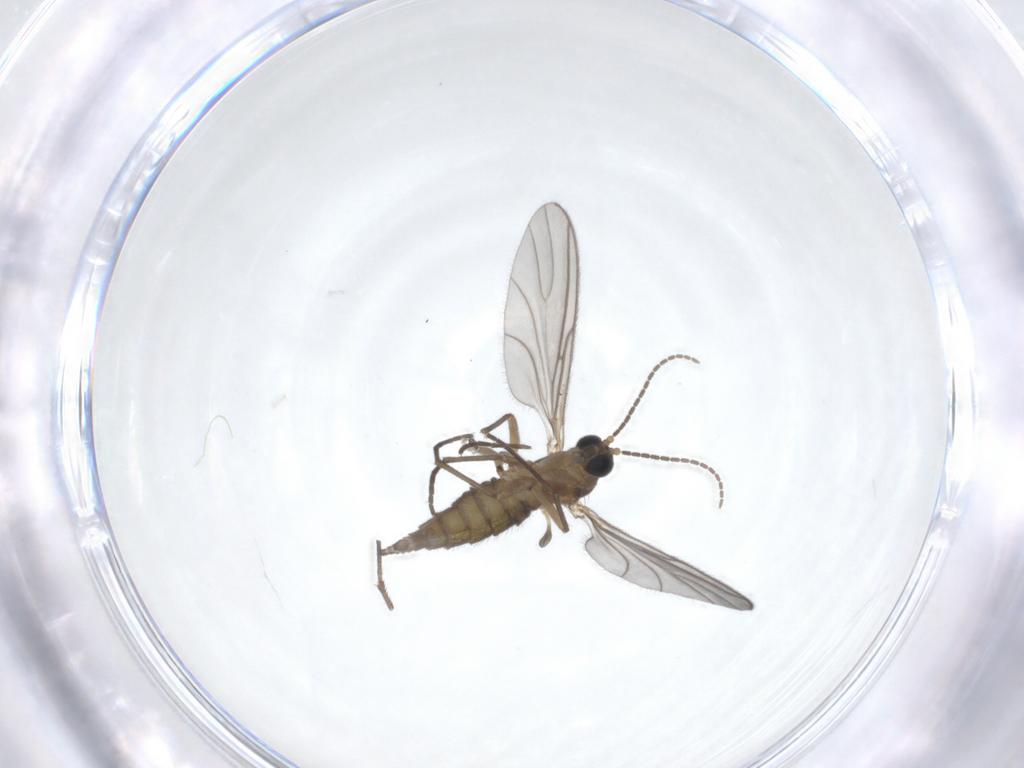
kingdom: Animalia
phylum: Arthropoda
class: Insecta
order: Diptera
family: Sciaridae
